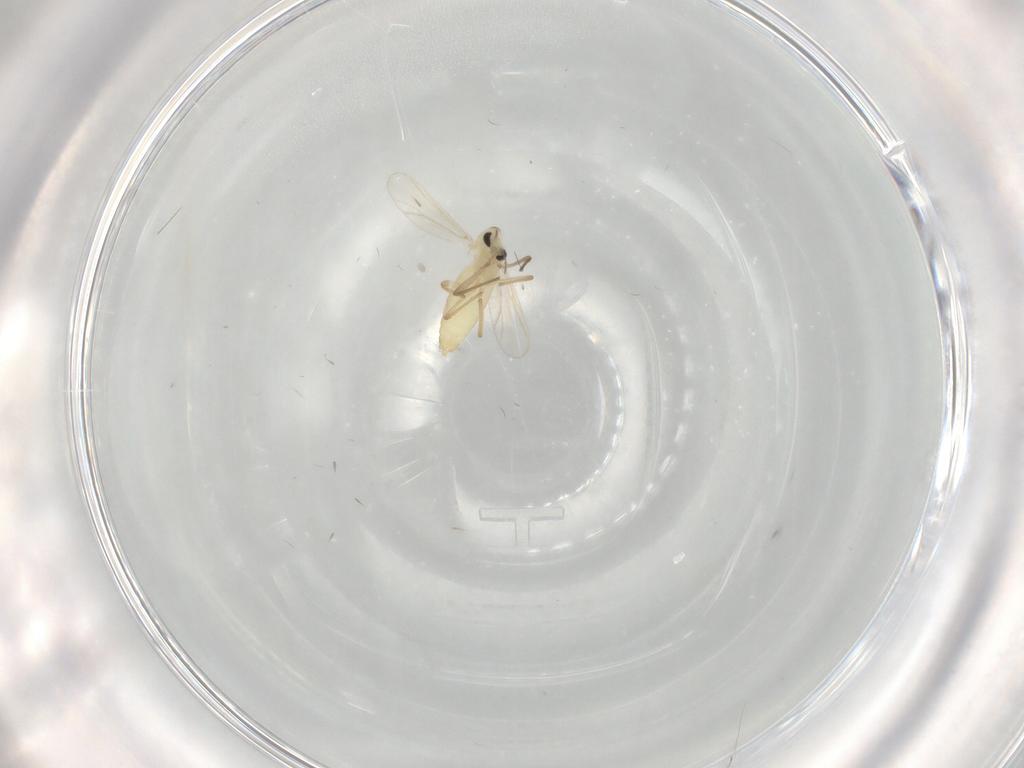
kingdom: Animalia
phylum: Arthropoda
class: Insecta
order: Diptera
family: Chironomidae
